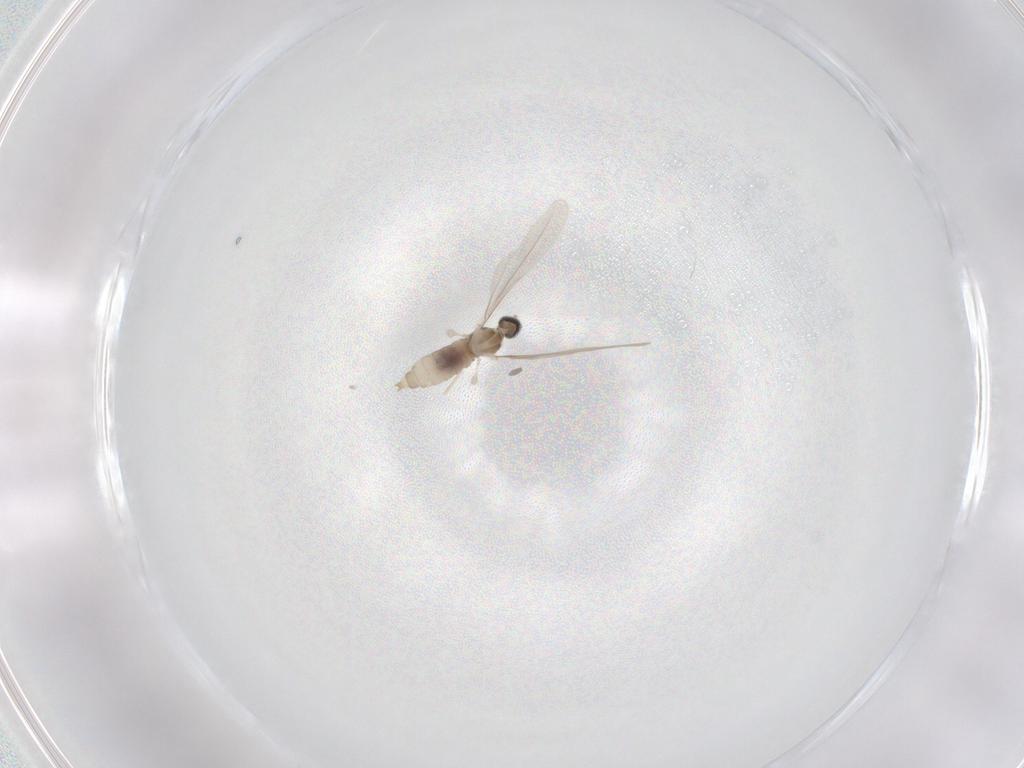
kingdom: Animalia
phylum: Arthropoda
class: Insecta
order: Diptera
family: Cecidomyiidae
